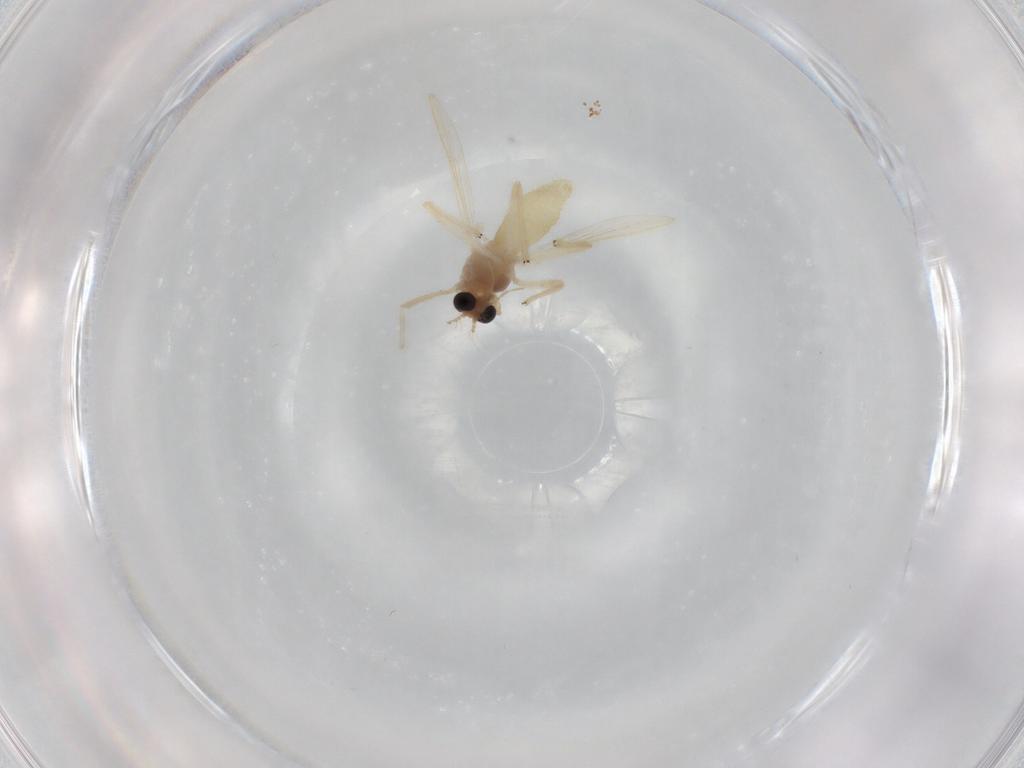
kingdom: Animalia
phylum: Arthropoda
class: Insecta
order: Diptera
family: Chironomidae
